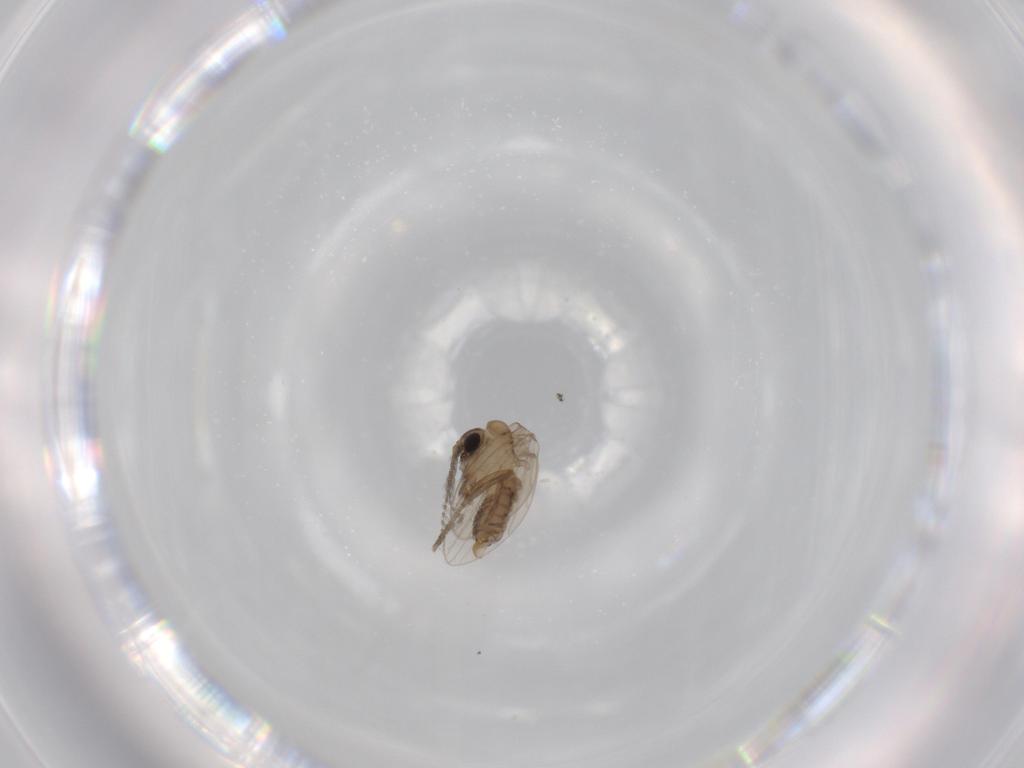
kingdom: Animalia
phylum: Arthropoda
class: Insecta
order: Diptera
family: Psychodidae
